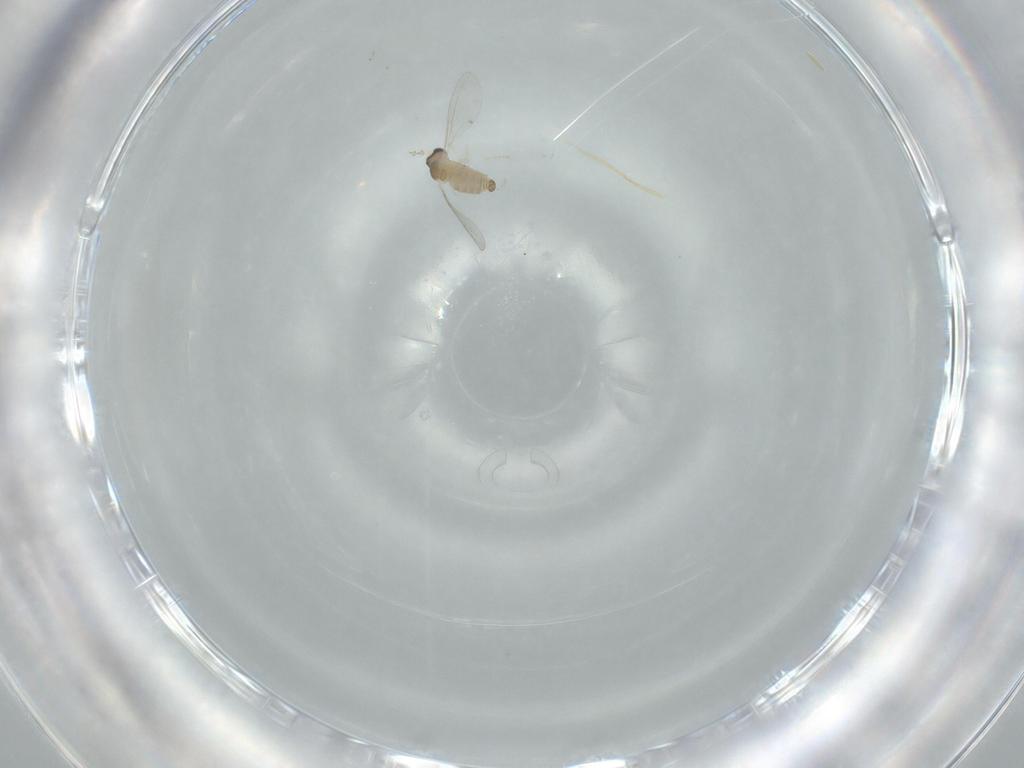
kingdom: Animalia
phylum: Arthropoda
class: Insecta
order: Diptera
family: Cecidomyiidae
